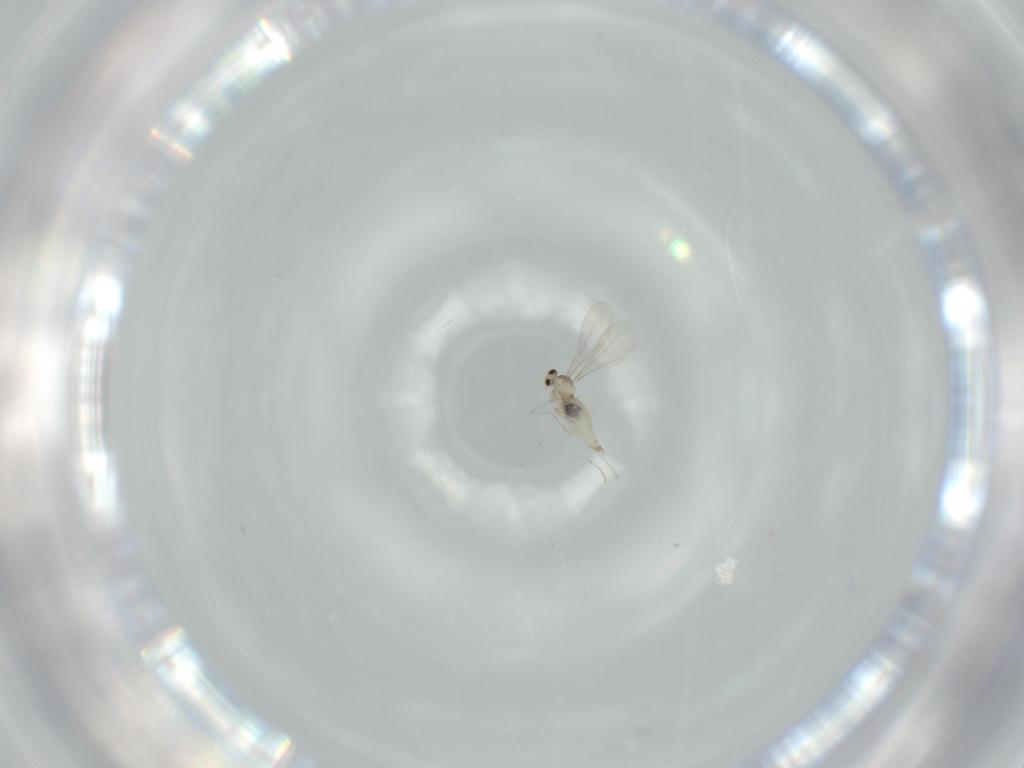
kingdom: Animalia
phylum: Arthropoda
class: Insecta
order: Diptera
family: Cecidomyiidae
